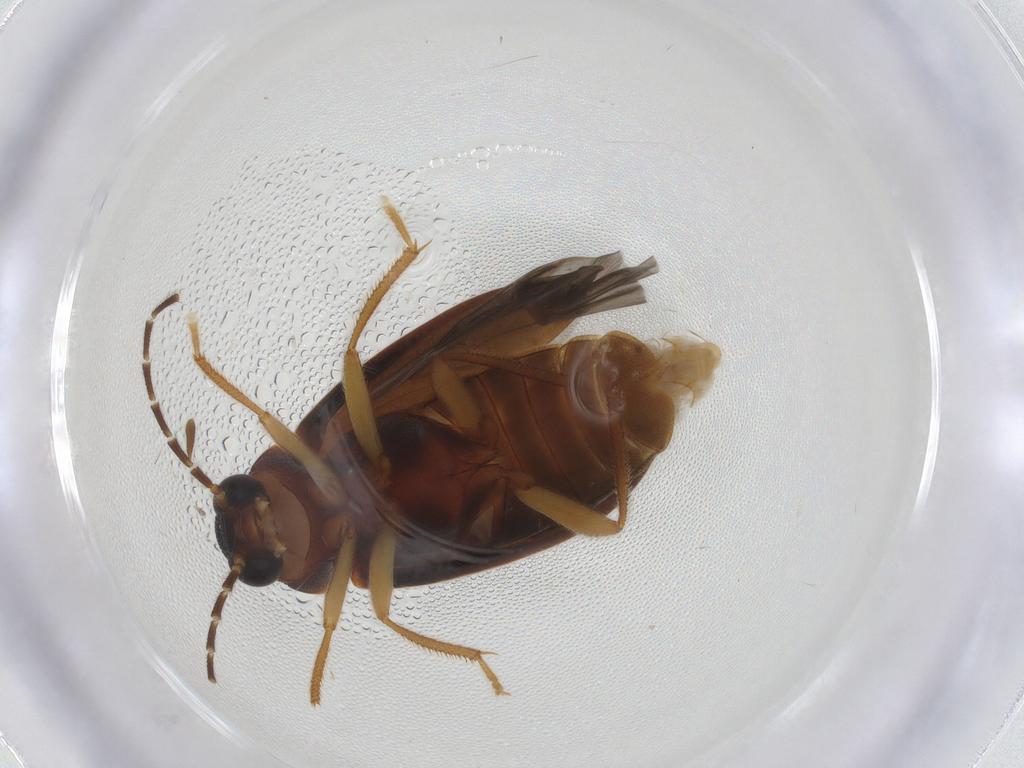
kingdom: Animalia
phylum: Arthropoda
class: Insecta
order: Coleoptera
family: Ptilodactylidae
